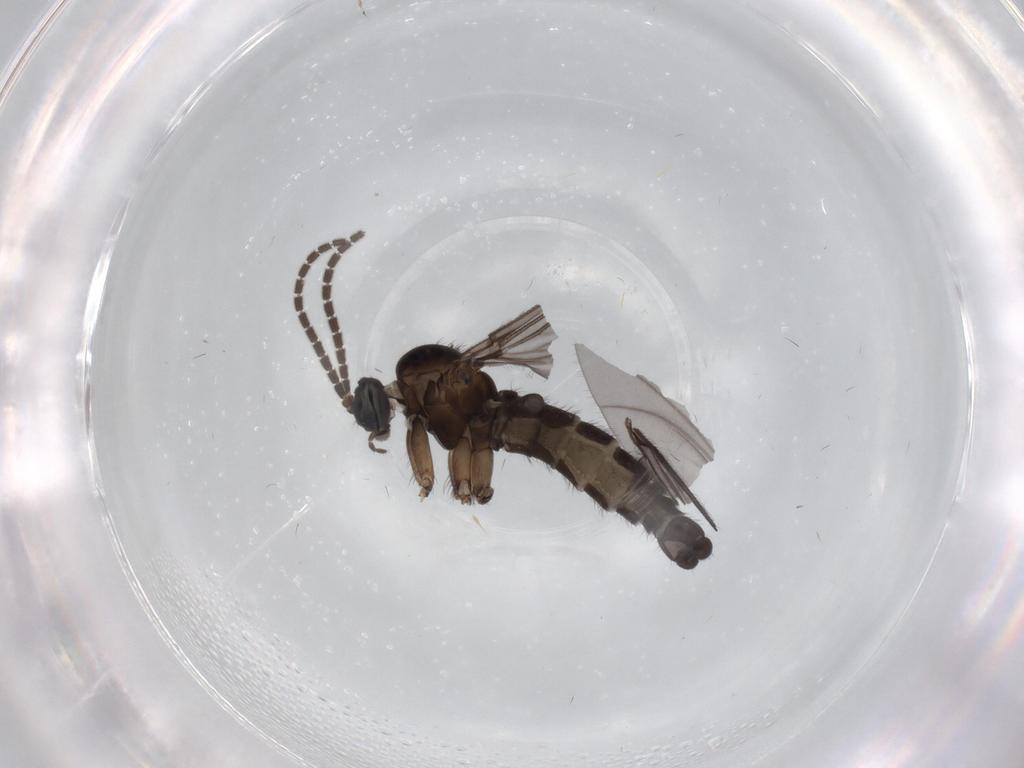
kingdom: Animalia
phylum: Arthropoda
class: Insecta
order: Diptera
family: Sciaridae
